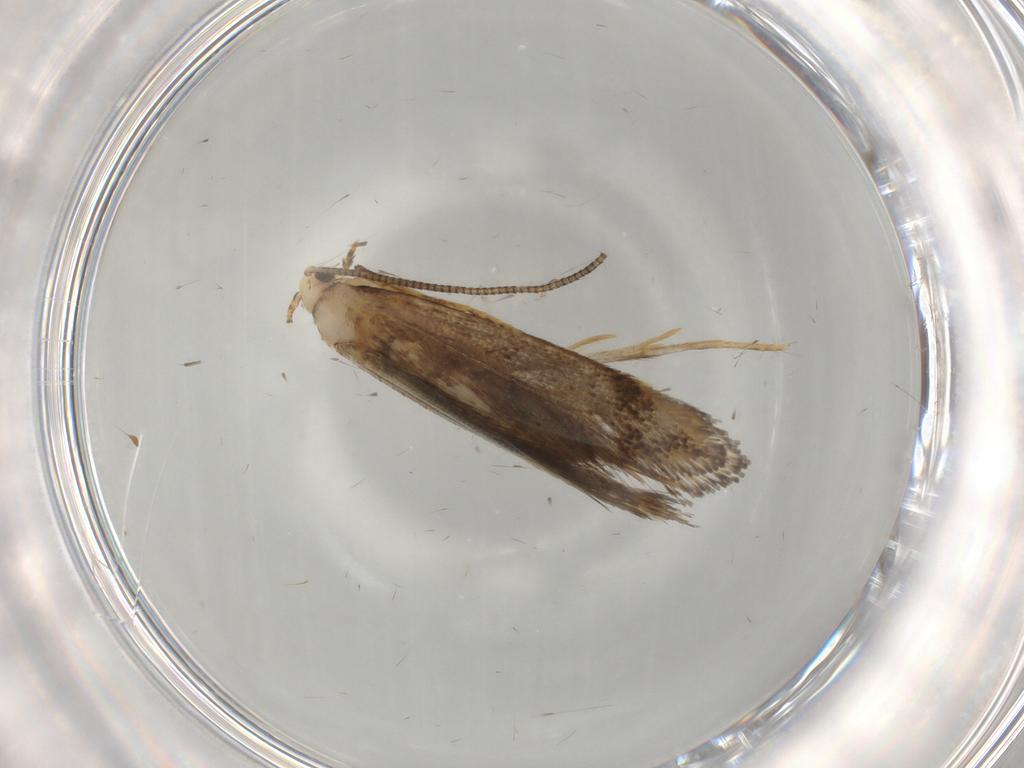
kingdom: Animalia
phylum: Arthropoda
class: Insecta
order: Lepidoptera
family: Tineidae
